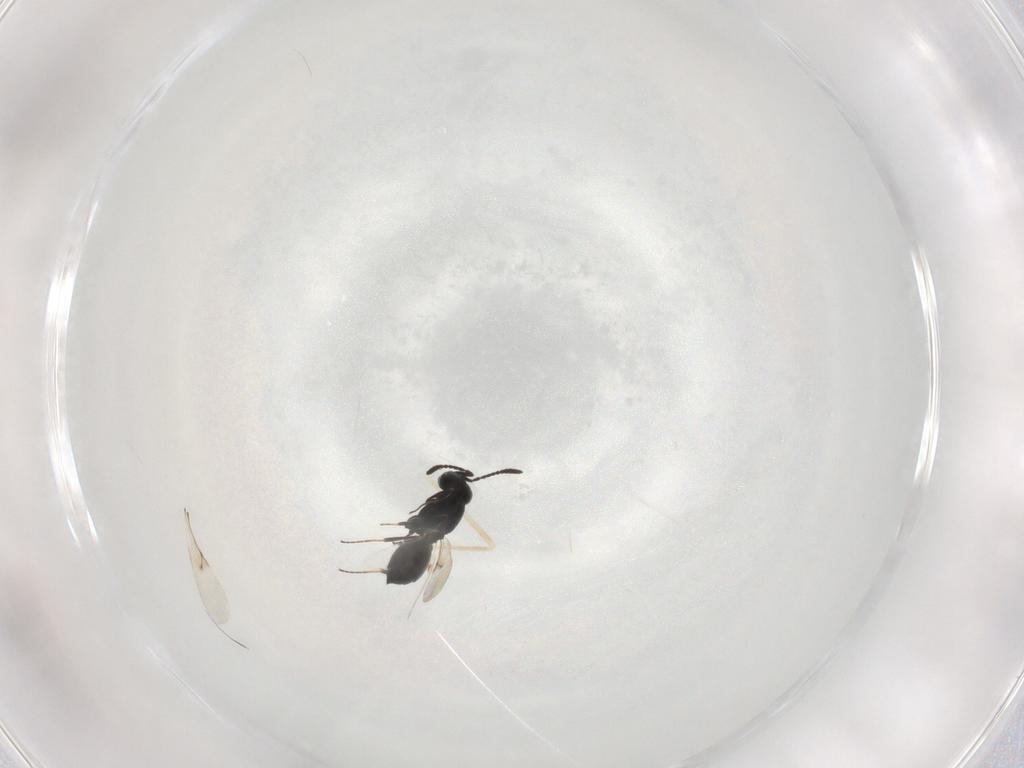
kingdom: Animalia
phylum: Arthropoda
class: Insecta
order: Hymenoptera
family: Scelionidae
